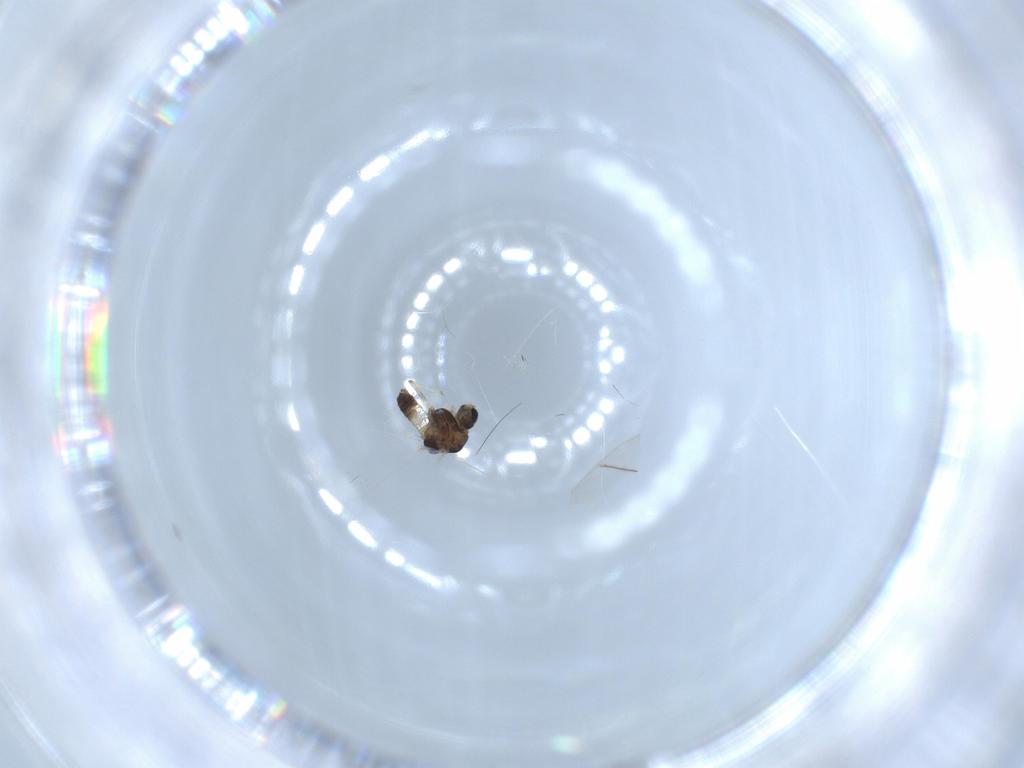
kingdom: Animalia
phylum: Arthropoda
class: Insecta
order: Diptera
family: Chironomidae
